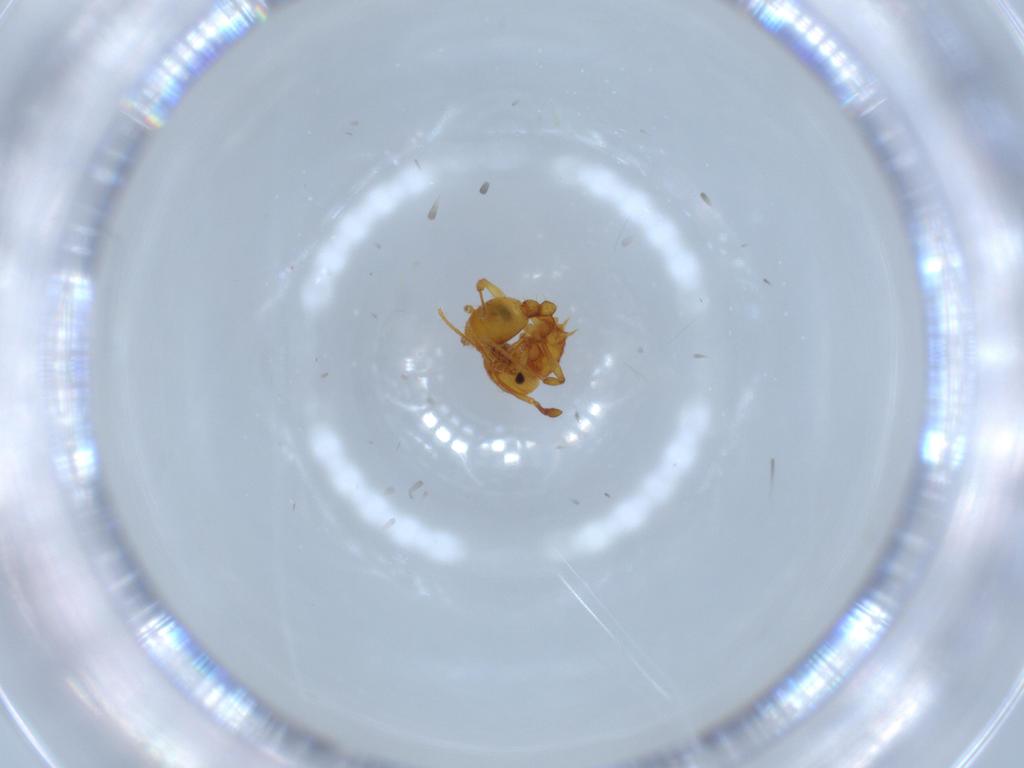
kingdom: Animalia
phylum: Arthropoda
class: Insecta
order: Hymenoptera
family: Formicidae
